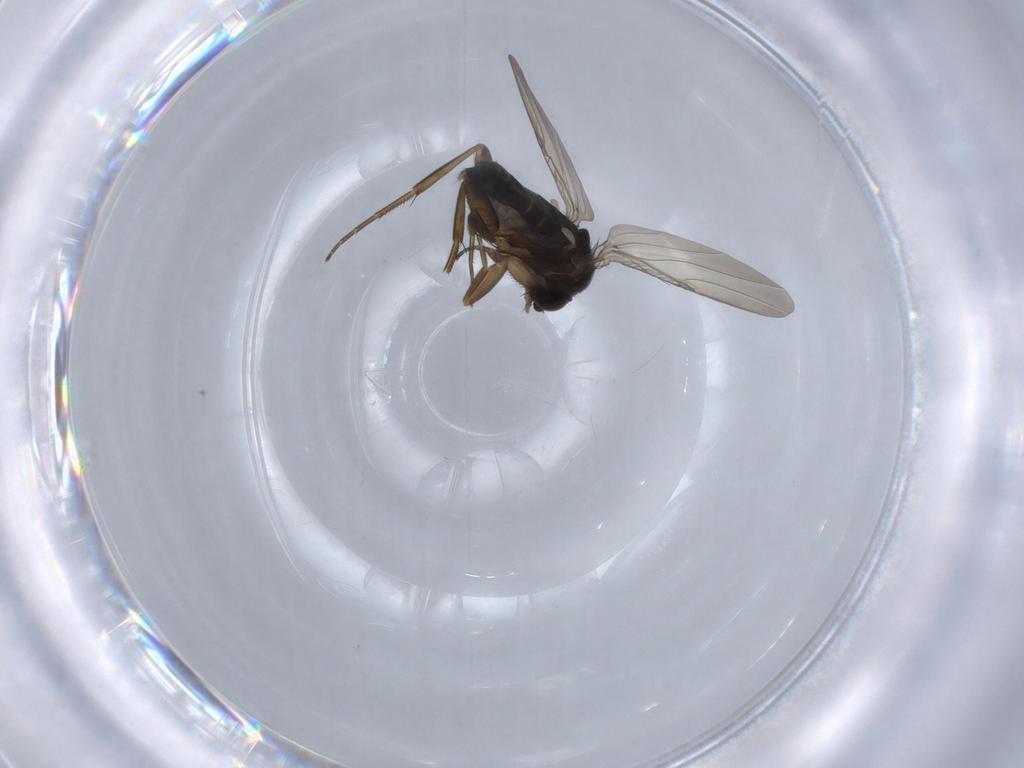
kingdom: Animalia
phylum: Arthropoda
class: Insecta
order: Diptera
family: Phoridae
